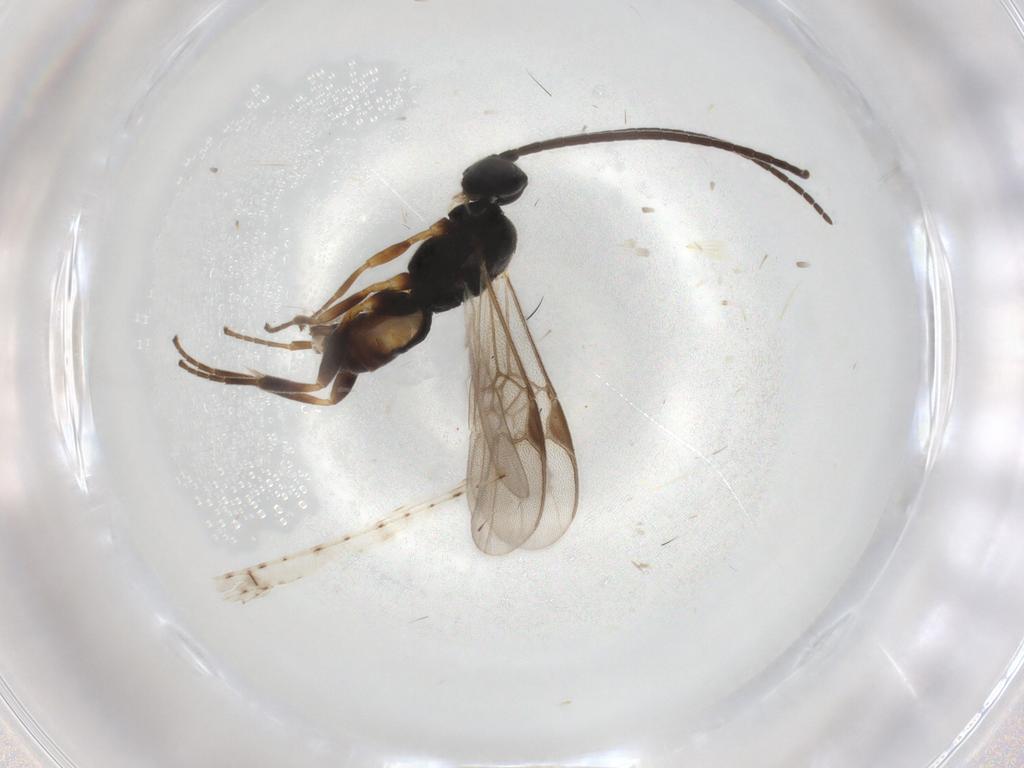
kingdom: Animalia
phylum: Arthropoda
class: Insecta
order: Hymenoptera
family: Braconidae
